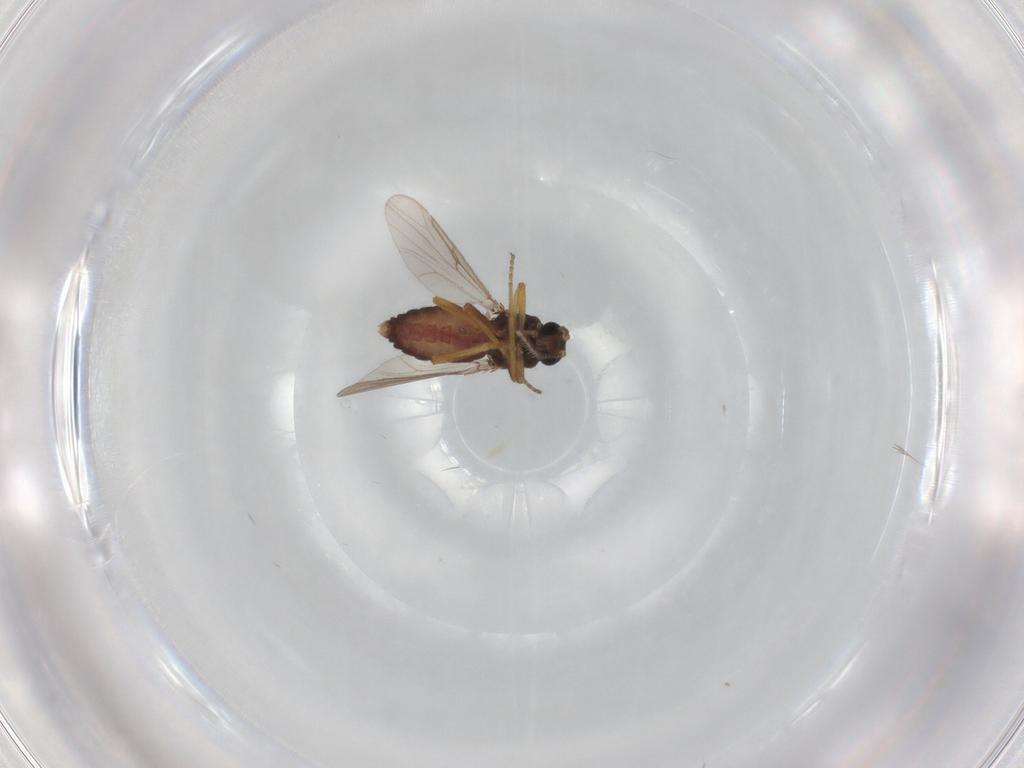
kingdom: Animalia
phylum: Arthropoda
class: Insecta
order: Diptera
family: Ceratopogonidae
